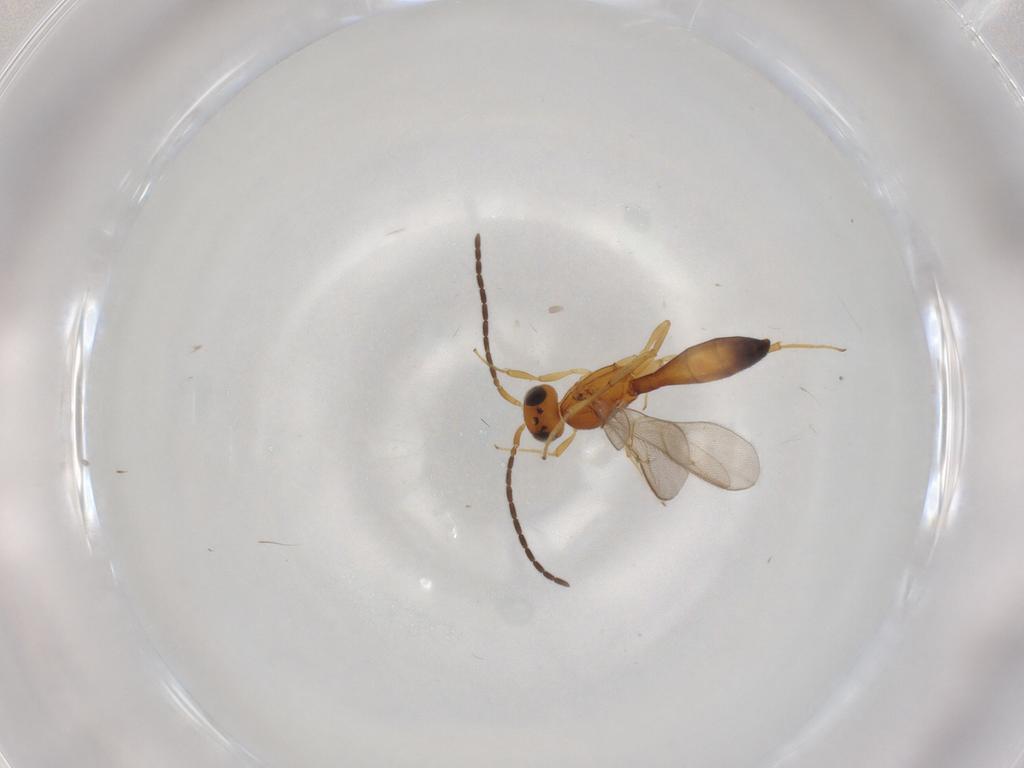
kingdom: Animalia
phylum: Arthropoda
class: Insecta
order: Hymenoptera
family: Scelionidae
